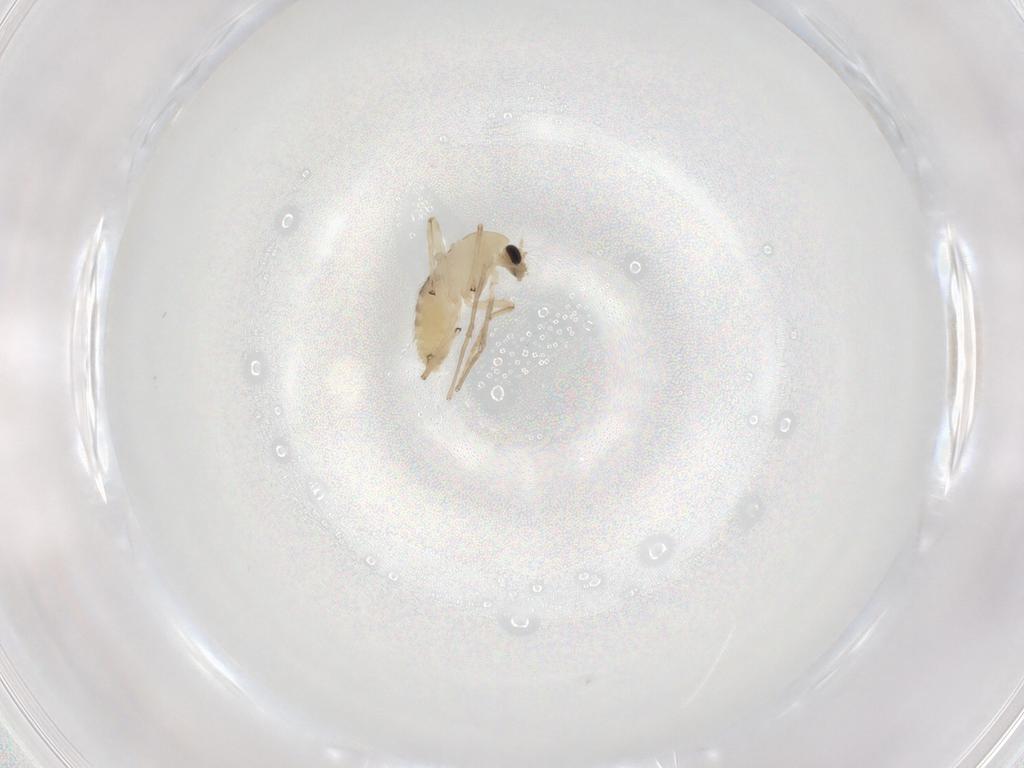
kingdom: Animalia
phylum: Arthropoda
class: Insecta
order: Diptera
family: Chironomidae
